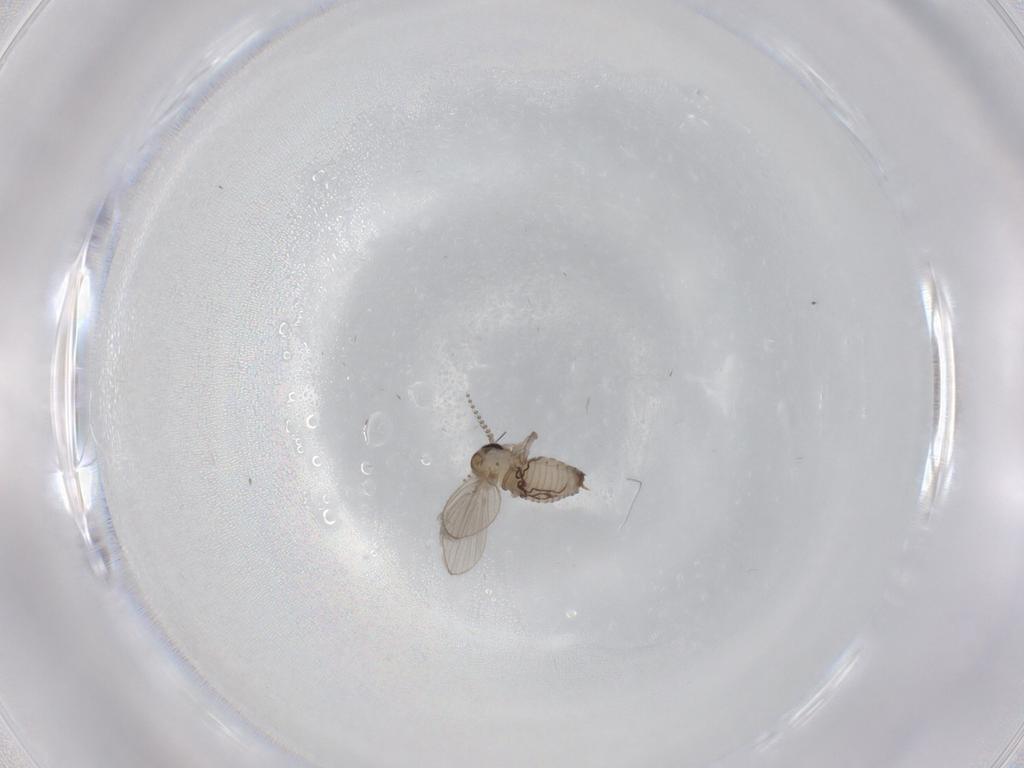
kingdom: Animalia
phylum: Arthropoda
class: Insecta
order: Diptera
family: Psychodidae
